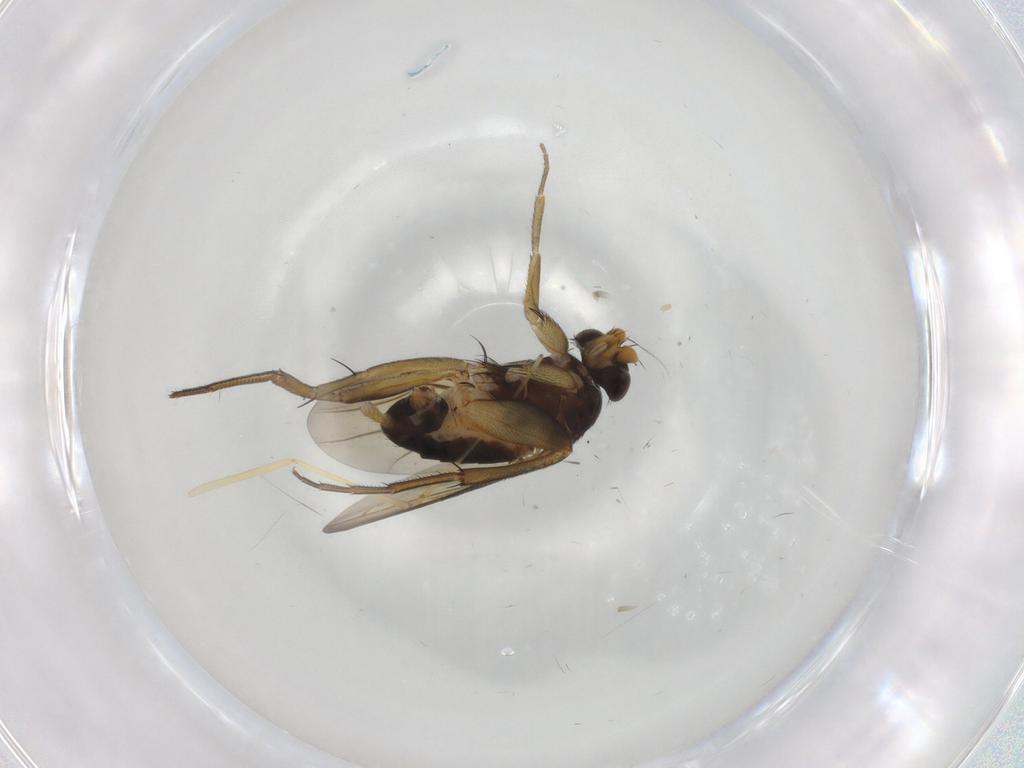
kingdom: Animalia
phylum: Arthropoda
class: Insecta
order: Diptera
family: Phoridae
